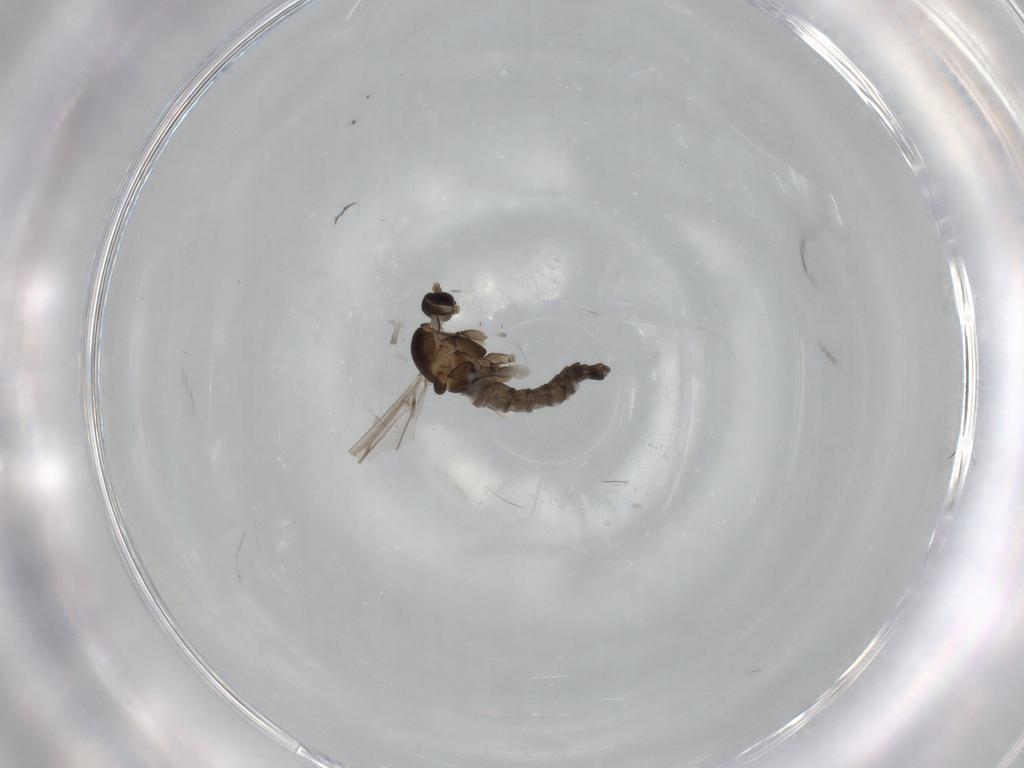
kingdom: Animalia
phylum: Arthropoda
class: Insecta
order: Diptera
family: Cecidomyiidae
